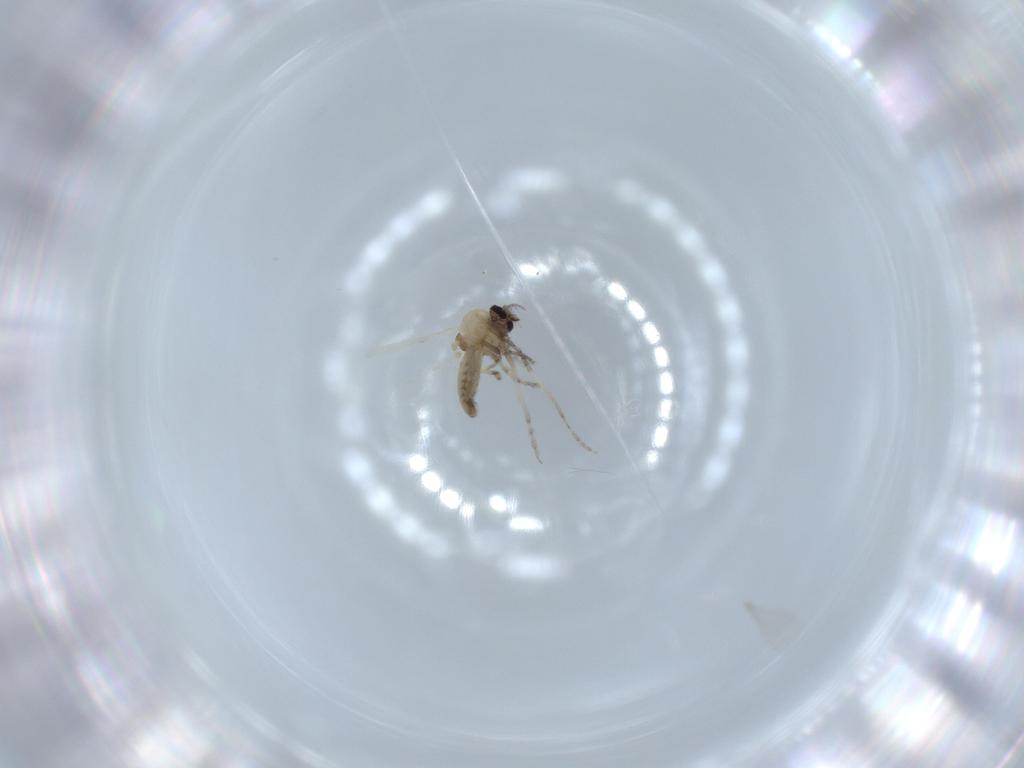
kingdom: Animalia
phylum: Arthropoda
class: Insecta
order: Diptera
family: Cecidomyiidae
